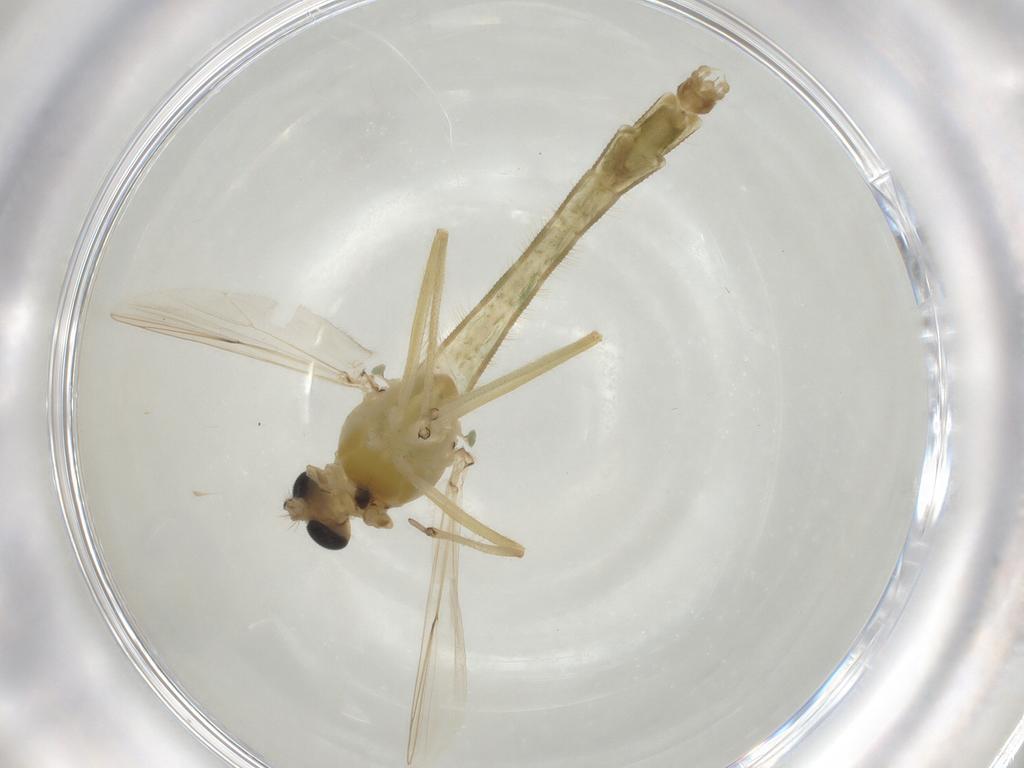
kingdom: Animalia
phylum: Arthropoda
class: Insecta
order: Diptera
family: Chironomidae
